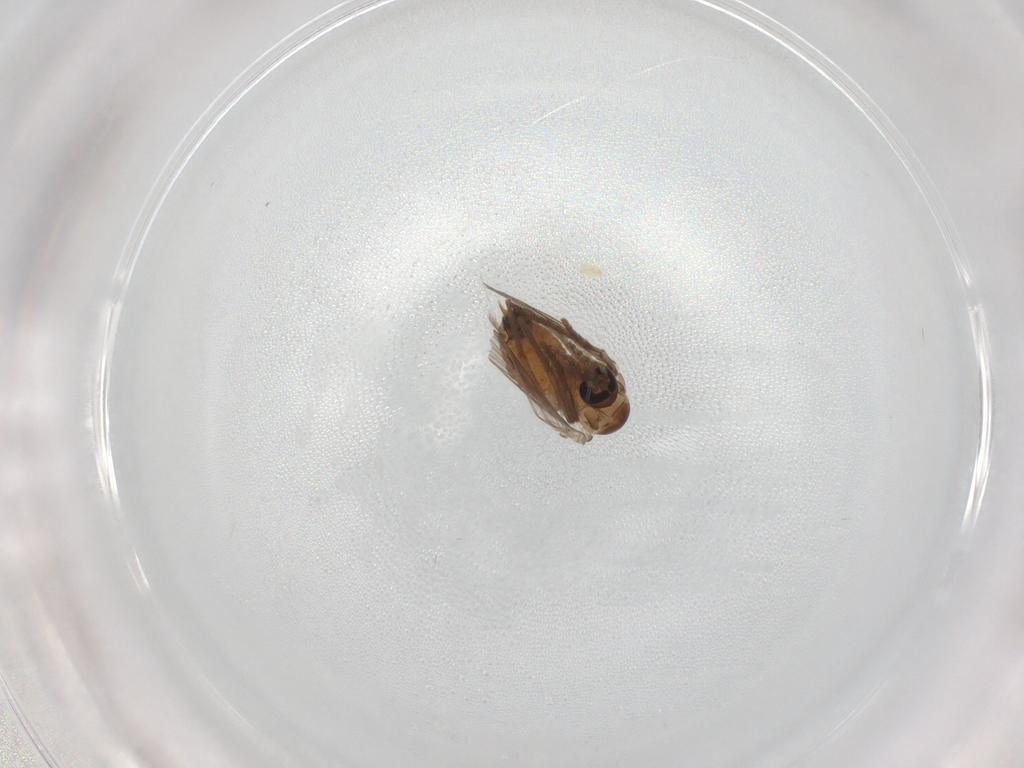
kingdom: Animalia
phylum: Arthropoda
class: Insecta
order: Diptera
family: Psychodidae
